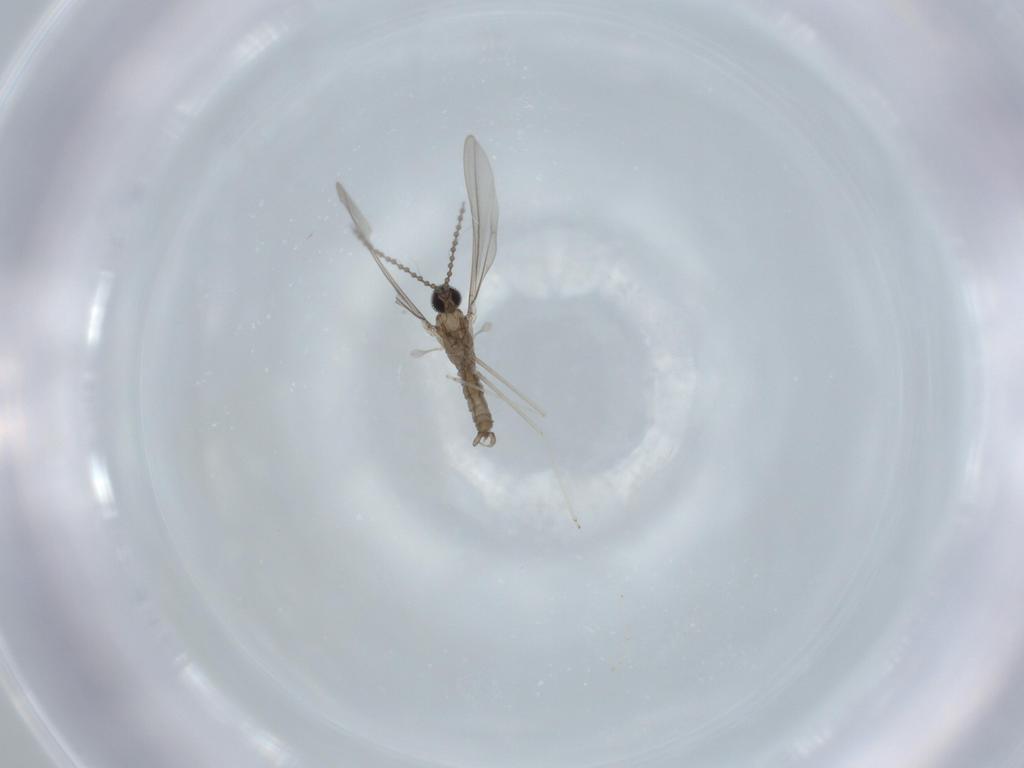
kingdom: Animalia
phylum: Arthropoda
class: Insecta
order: Diptera
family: Cecidomyiidae
